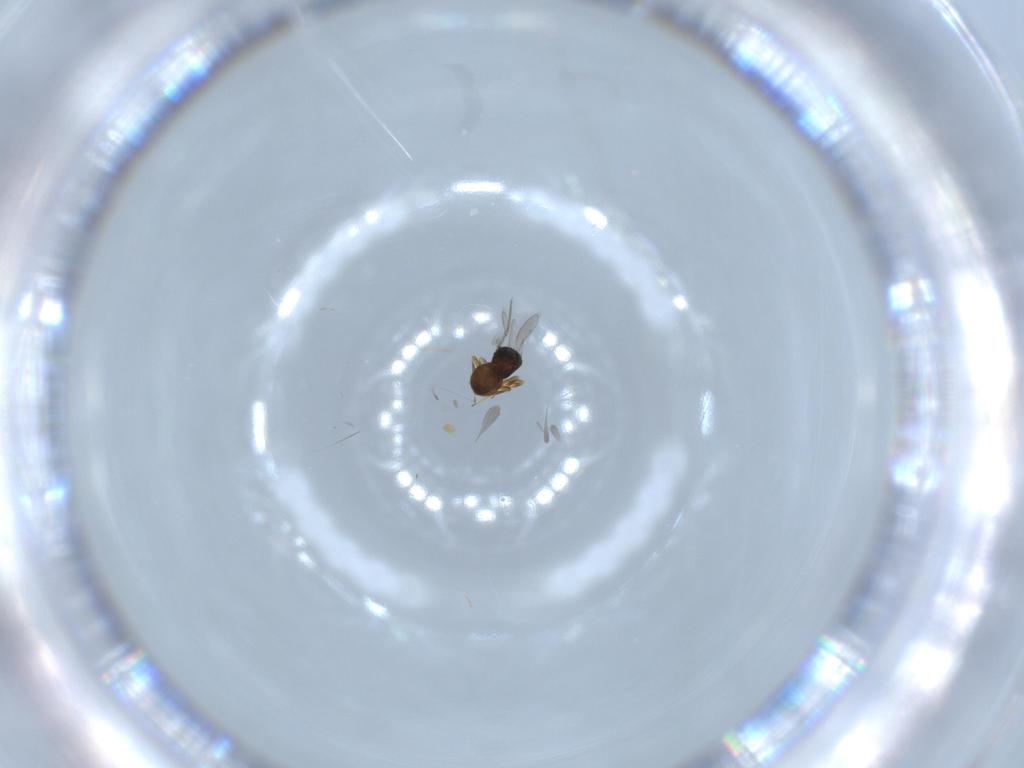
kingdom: Animalia
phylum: Arthropoda
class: Insecta
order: Hymenoptera
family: Scelionidae
